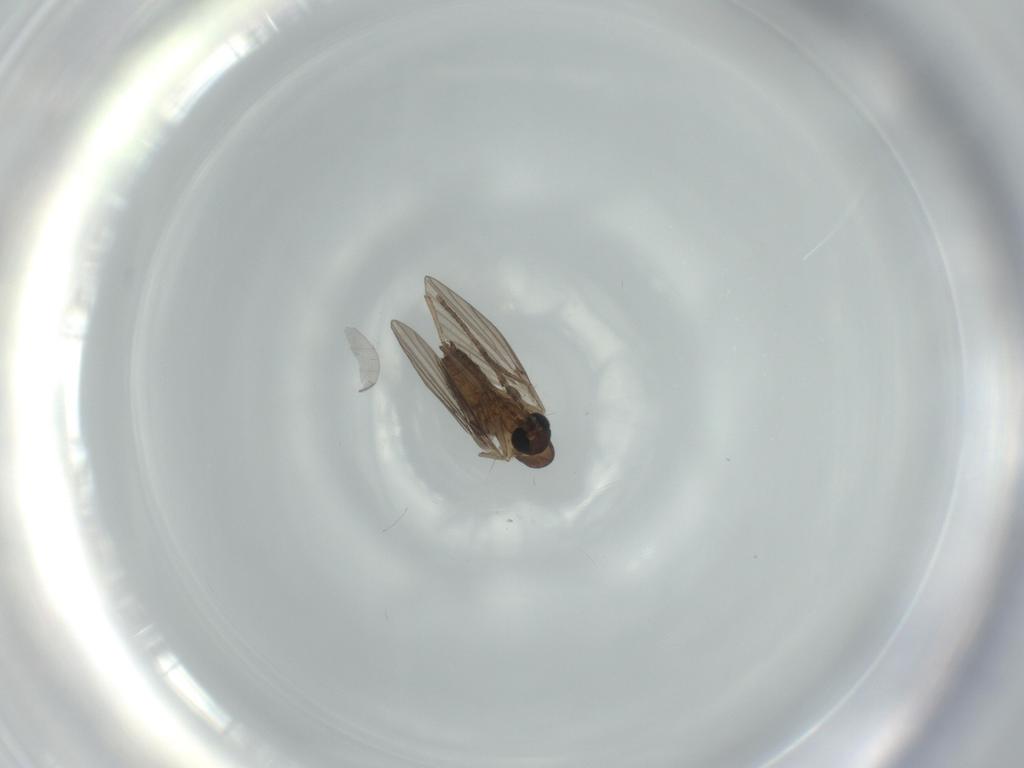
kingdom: Animalia
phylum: Arthropoda
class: Insecta
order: Diptera
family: Psychodidae
